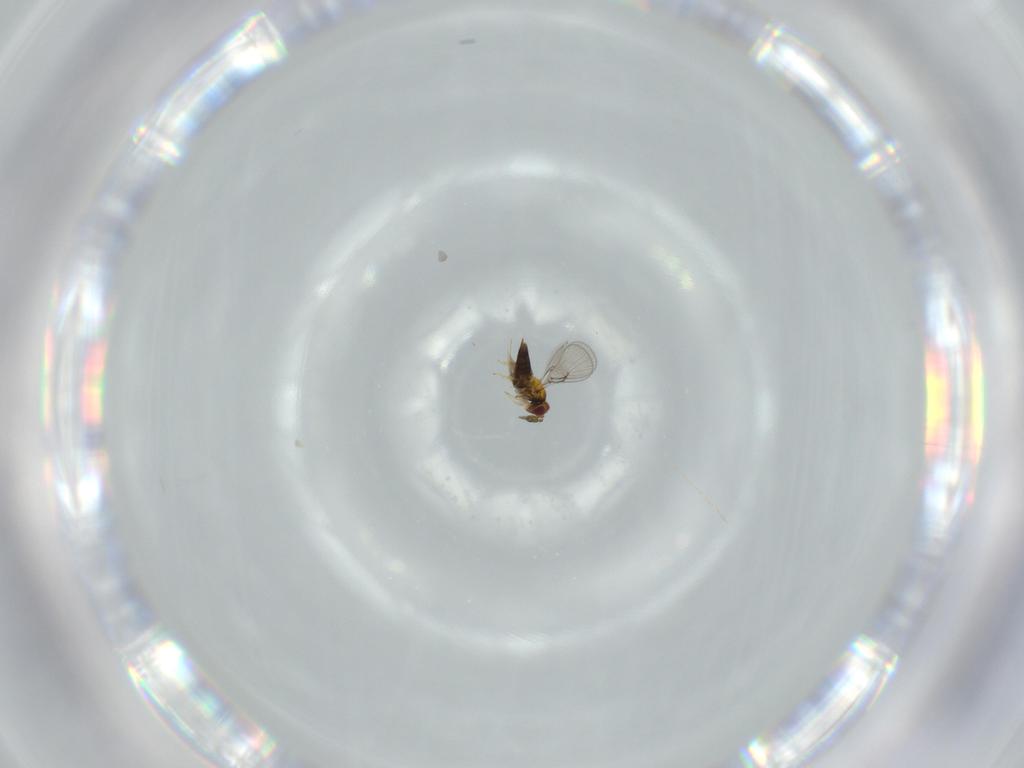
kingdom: Animalia
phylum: Arthropoda
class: Insecta
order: Hymenoptera
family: Trichogrammatidae
